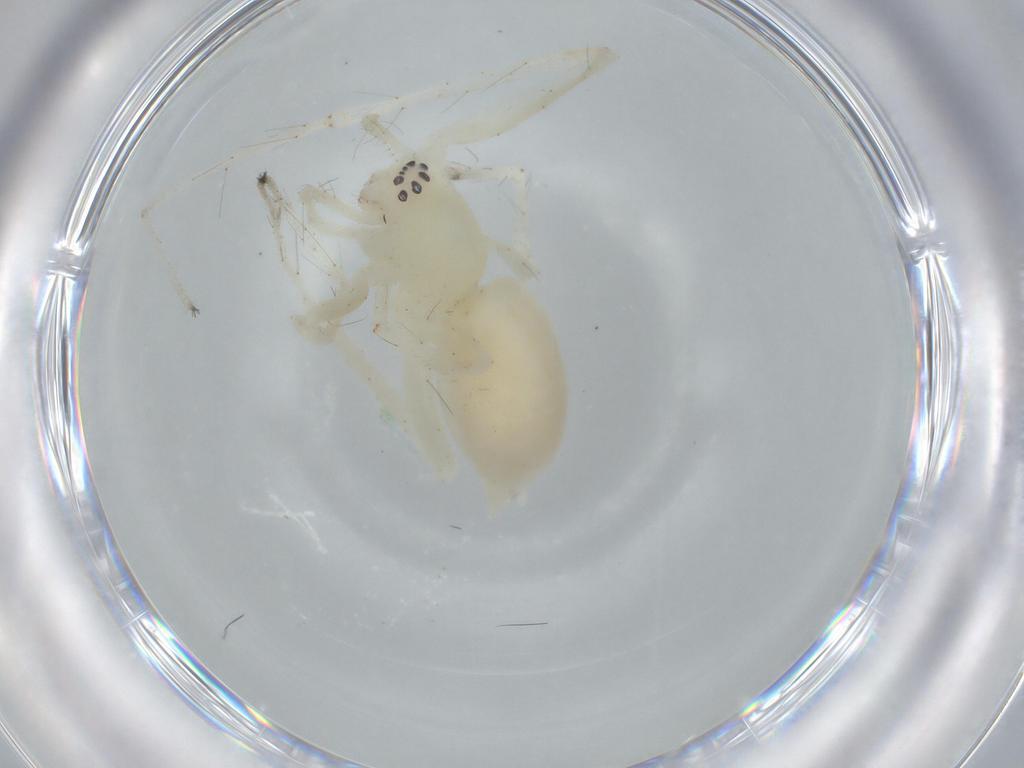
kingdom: Animalia
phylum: Arthropoda
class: Arachnida
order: Araneae
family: Anyphaenidae
